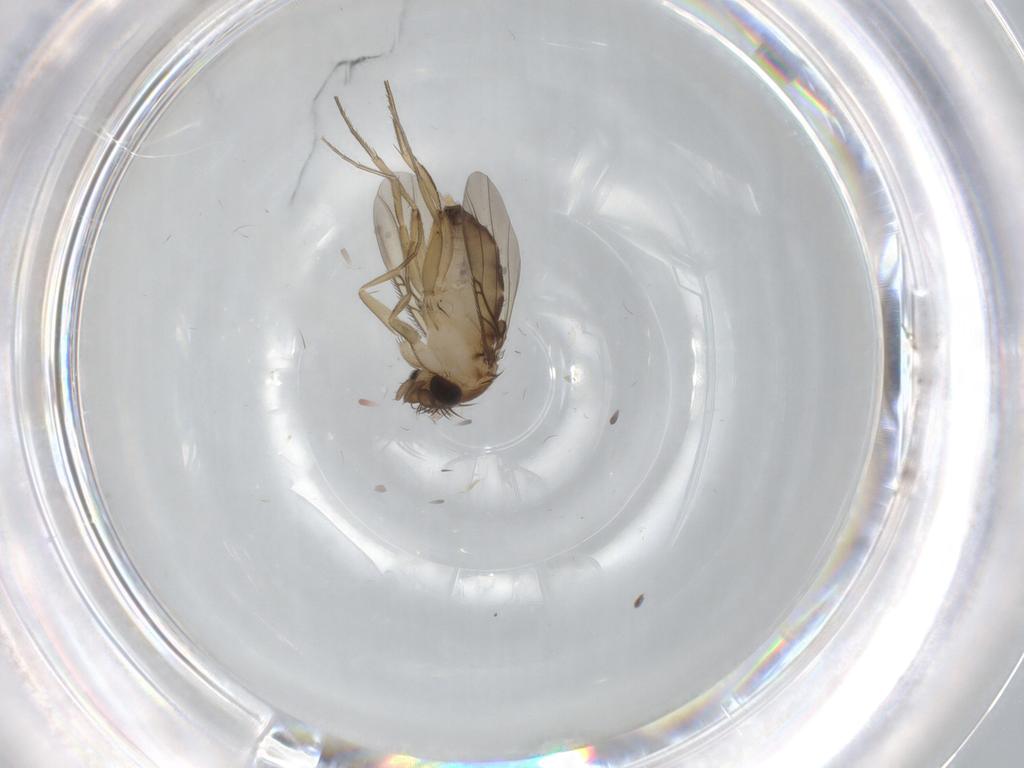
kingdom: Animalia
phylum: Arthropoda
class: Insecta
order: Diptera
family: Phoridae
